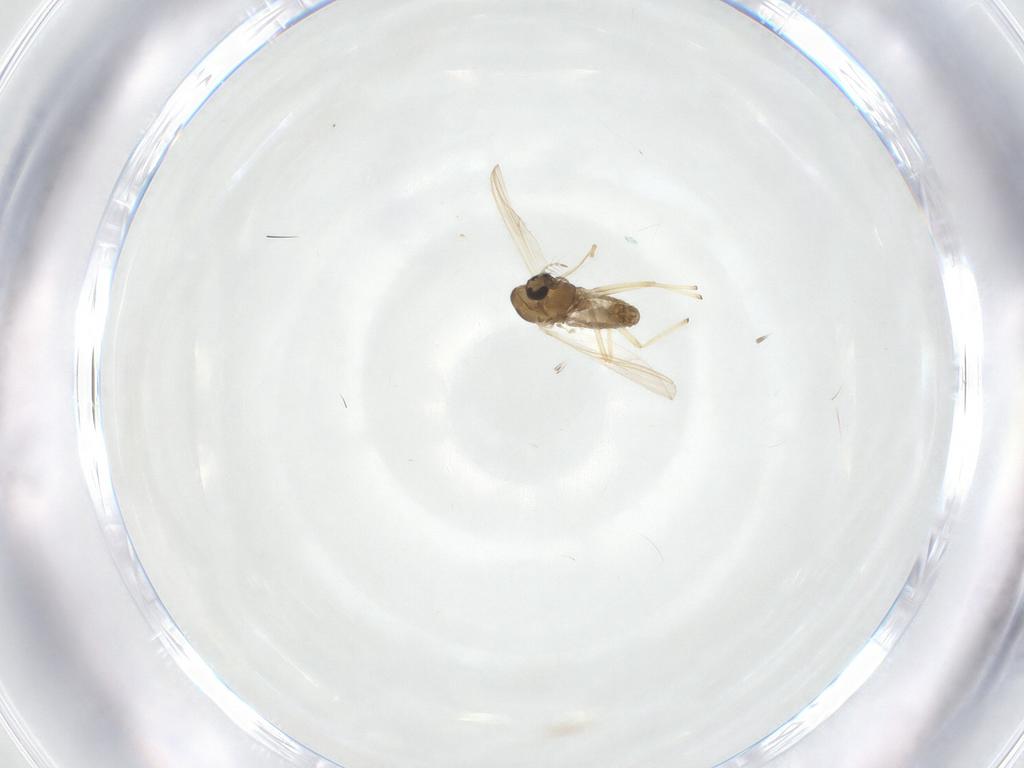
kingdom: Animalia
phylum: Arthropoda
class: Insecta
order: Diptera
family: Chironomidae
